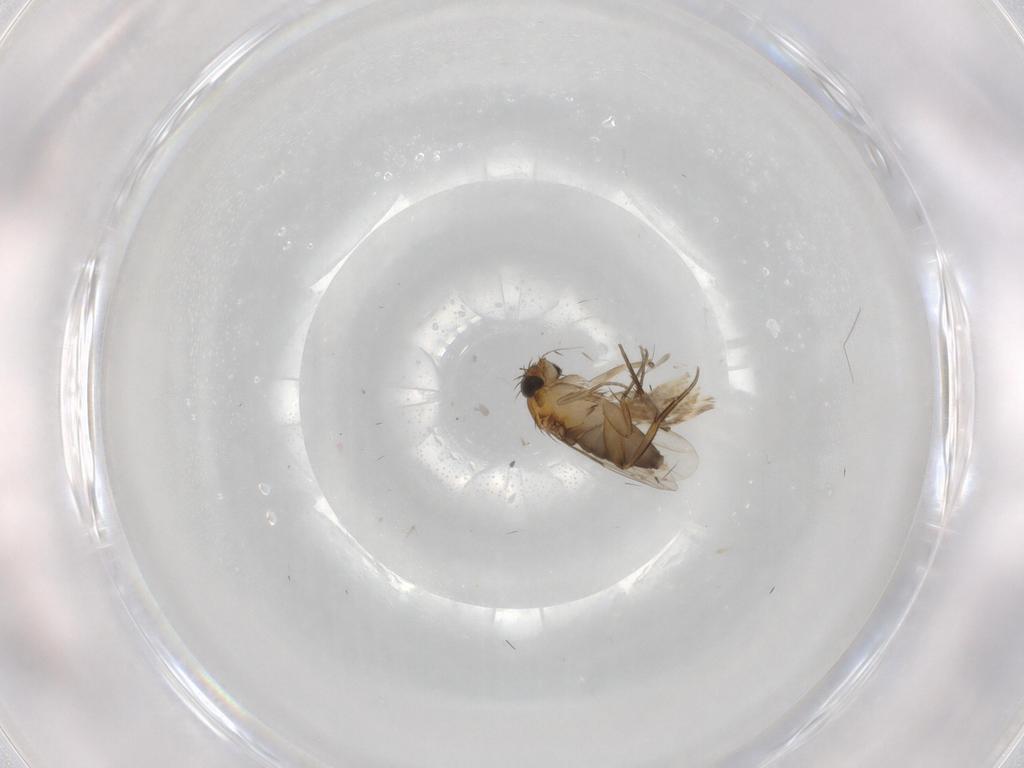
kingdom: Animalia
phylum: Arthropoda
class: Insecta
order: Diptera
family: Phoridae
